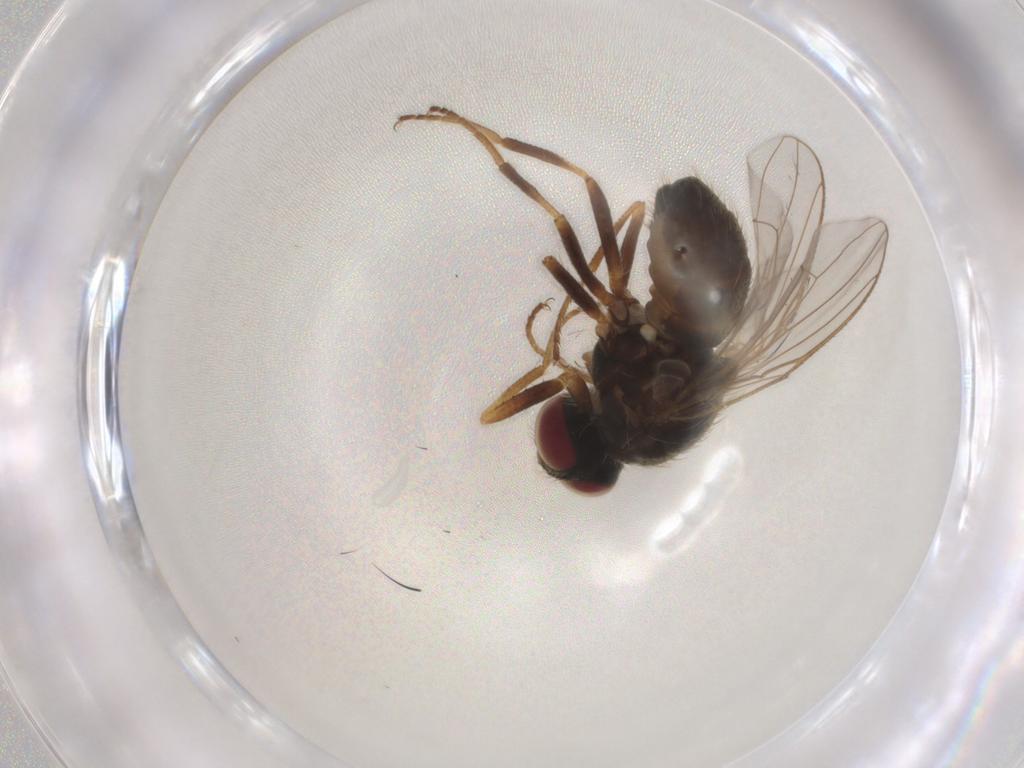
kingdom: Animalia
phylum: Arthropoda
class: Insecta
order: Diptera
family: Muscidae
